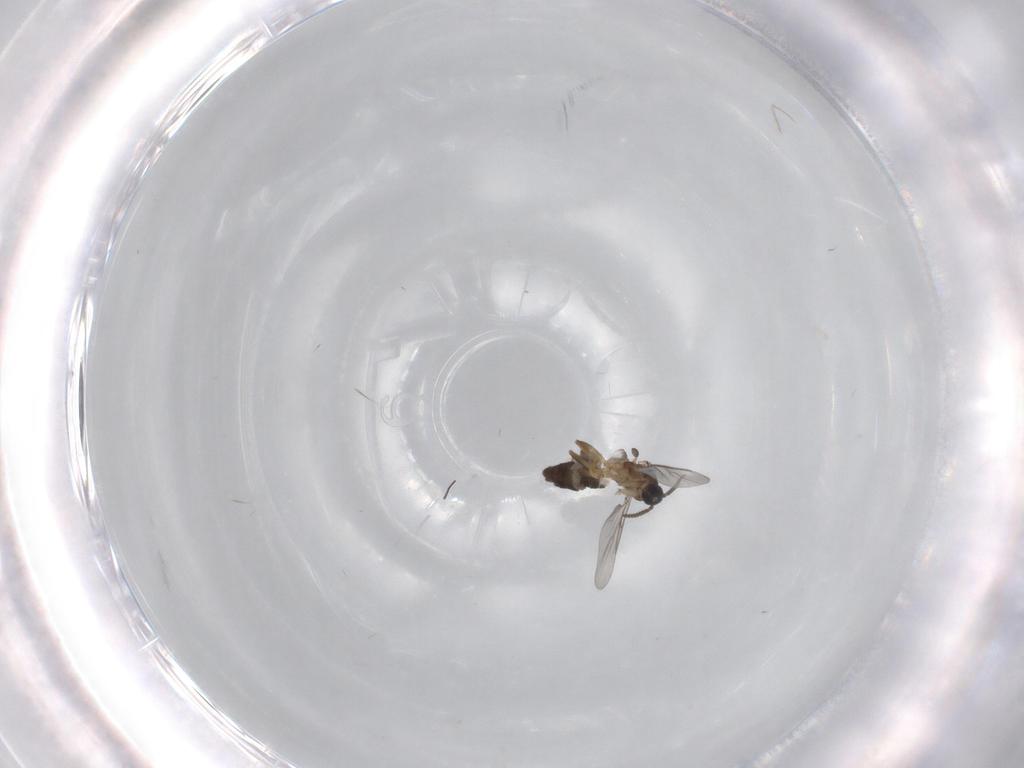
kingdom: Animalia
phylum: Arthropoda
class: Insecta
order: Diptera
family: Scatopsidae
